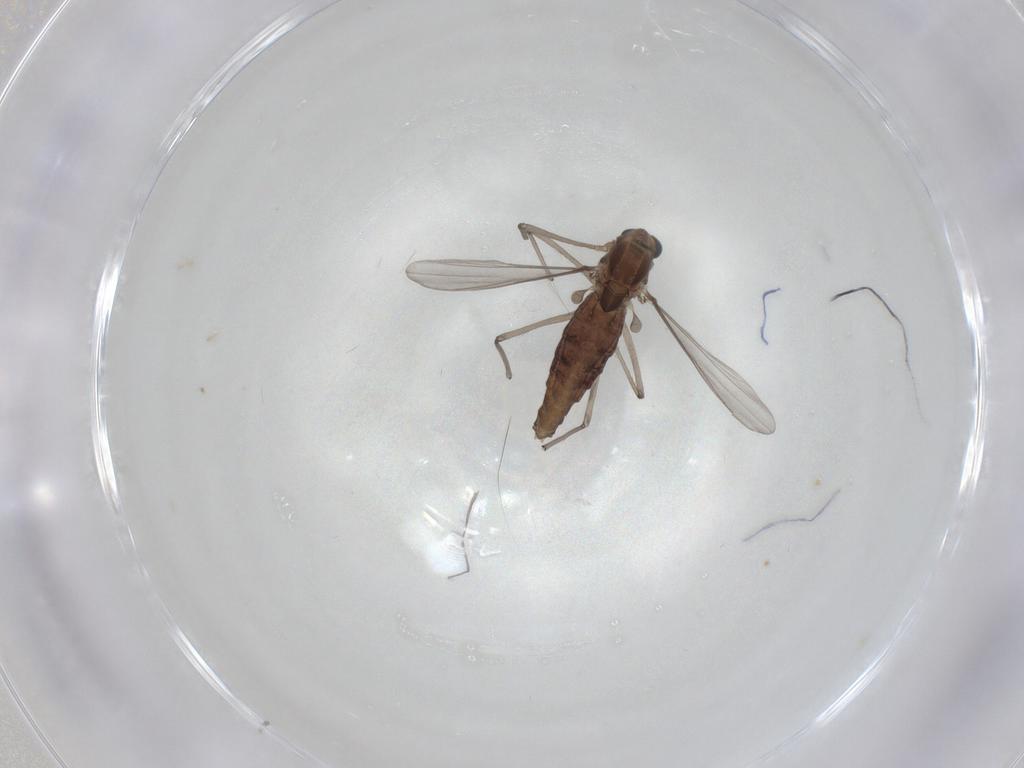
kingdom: Animalia
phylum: Arthropoda
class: Insecta
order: Diptera
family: Chironomidae
